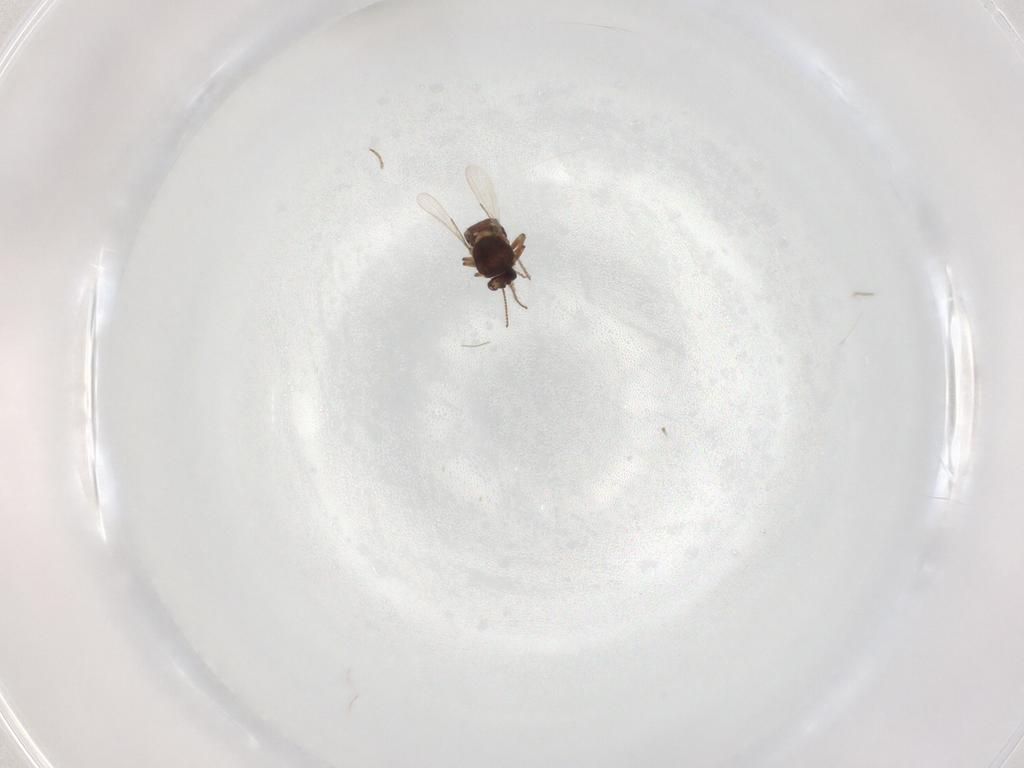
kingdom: Animalia
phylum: Arthropoda
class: Insecta
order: Diptera
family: Ceratopogonidae
